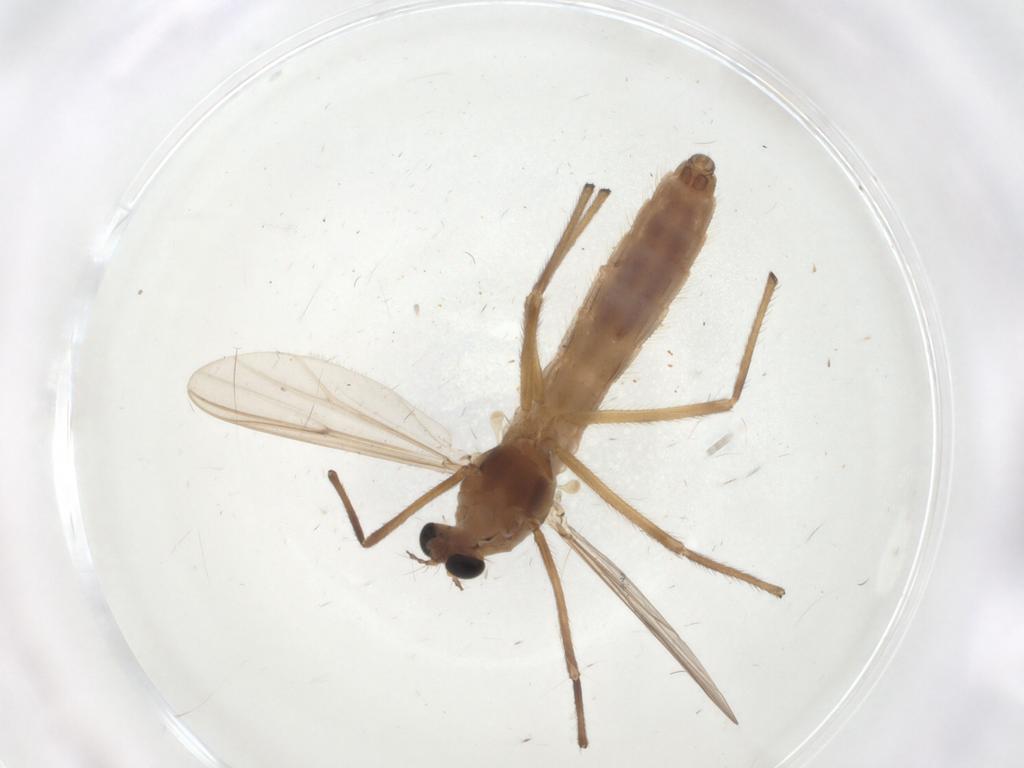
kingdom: Animalia
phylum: Arthropoda
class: Insecta
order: Diptera
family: Chironomidae
